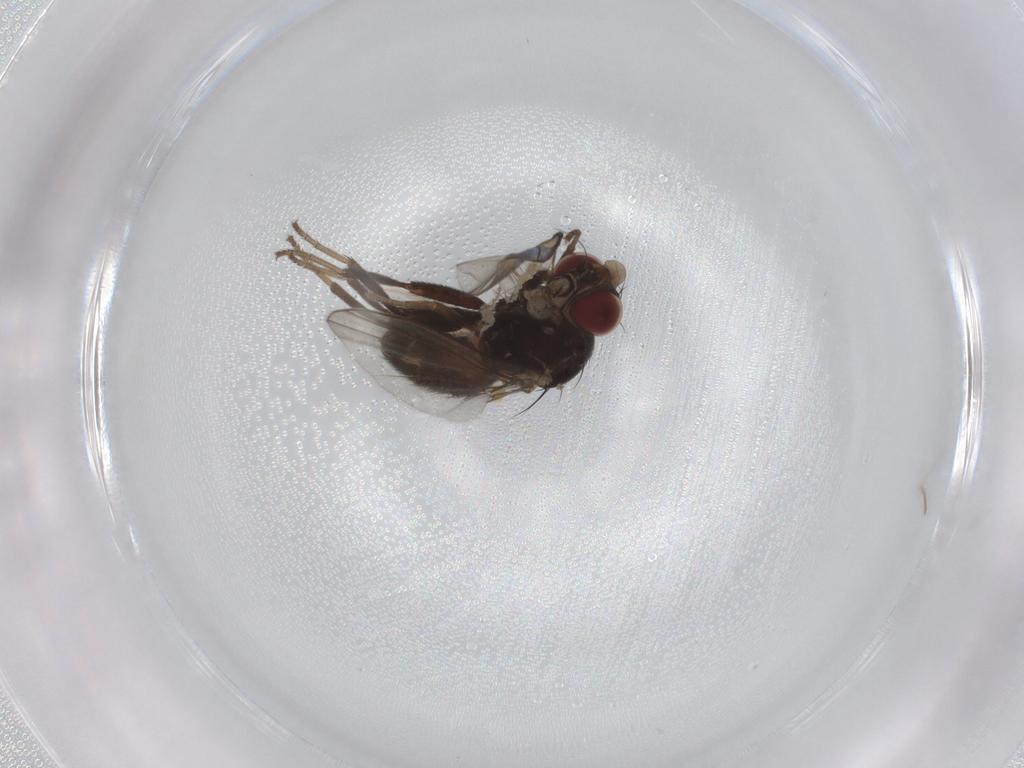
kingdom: Animalia
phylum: Arthropoda
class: Insecta
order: Diptera
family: Agromyzidae
